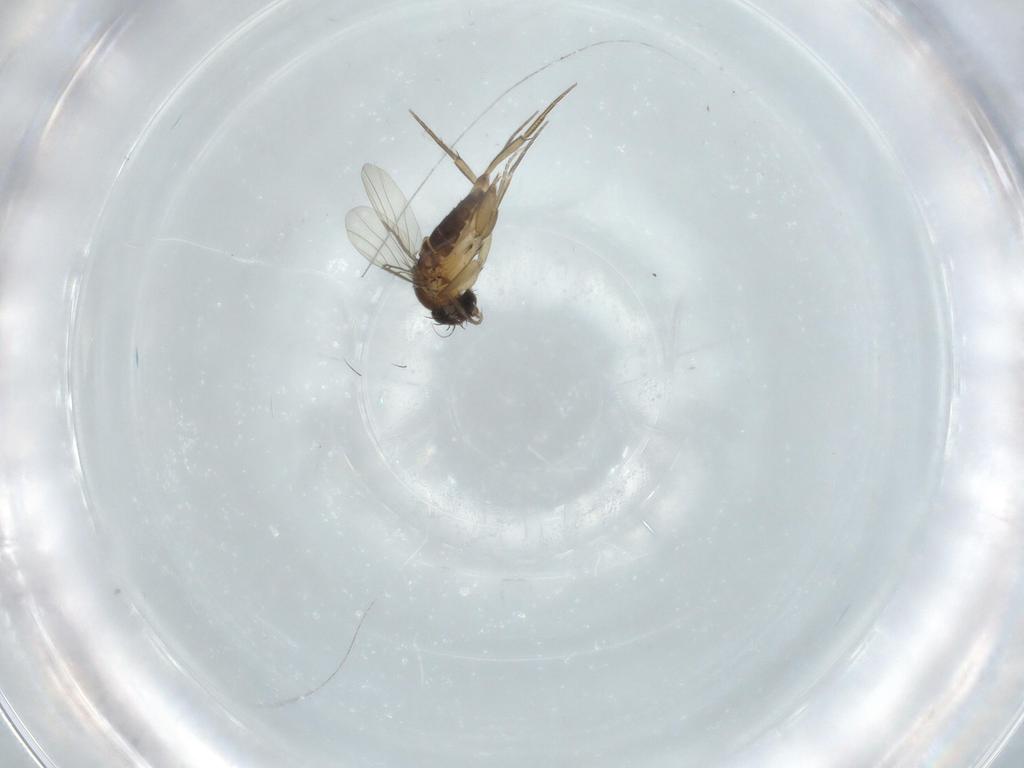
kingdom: Animalia
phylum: Arthropoda
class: Insecta
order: Diptera
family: Phoridae
